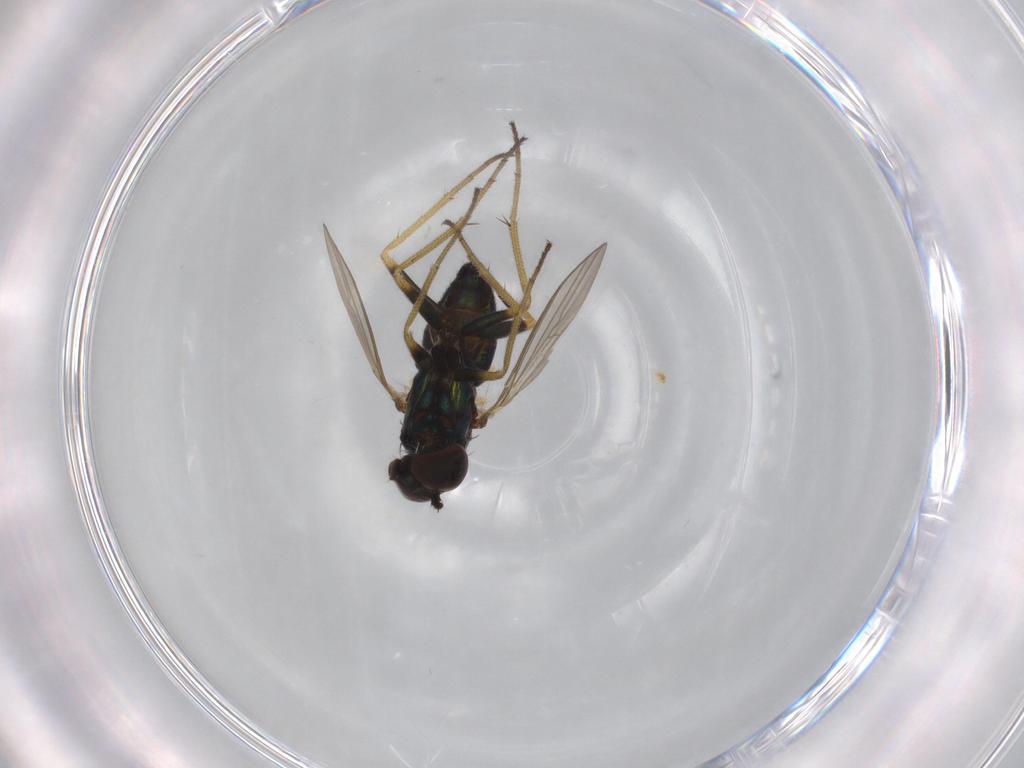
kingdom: Animalia
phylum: Arthropoda
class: Insecta
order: Diptera
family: Dolichopodidae
